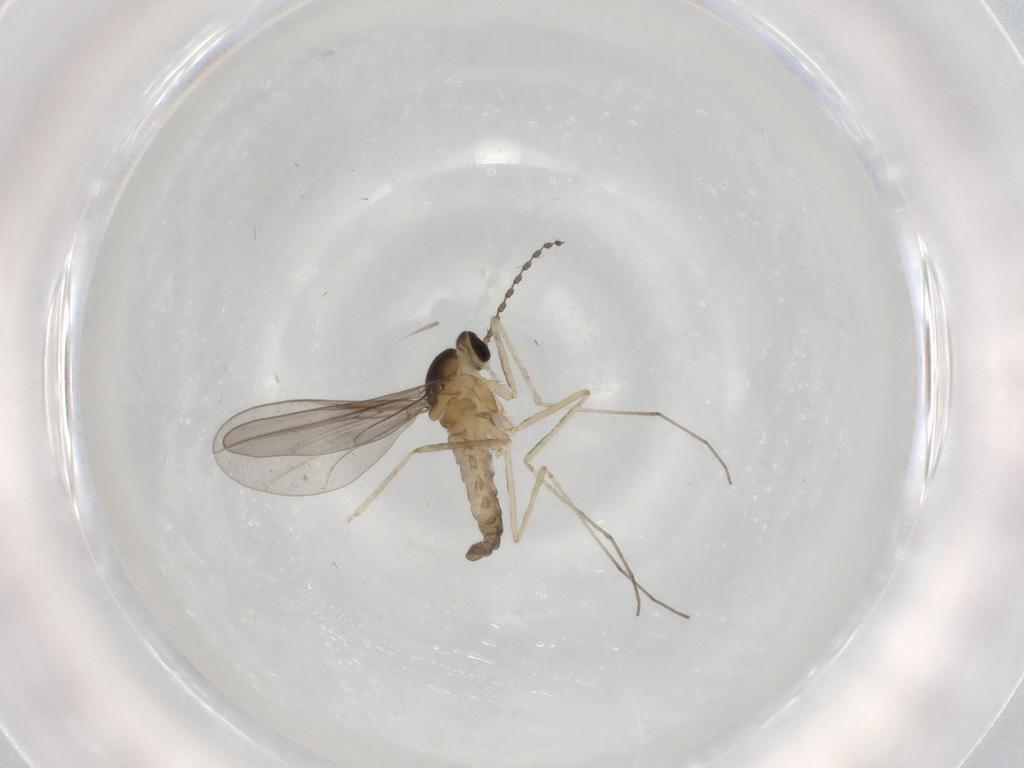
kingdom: Animalia
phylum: Arthropoda
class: Insecta
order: Diptera
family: Cecidomyiidae
